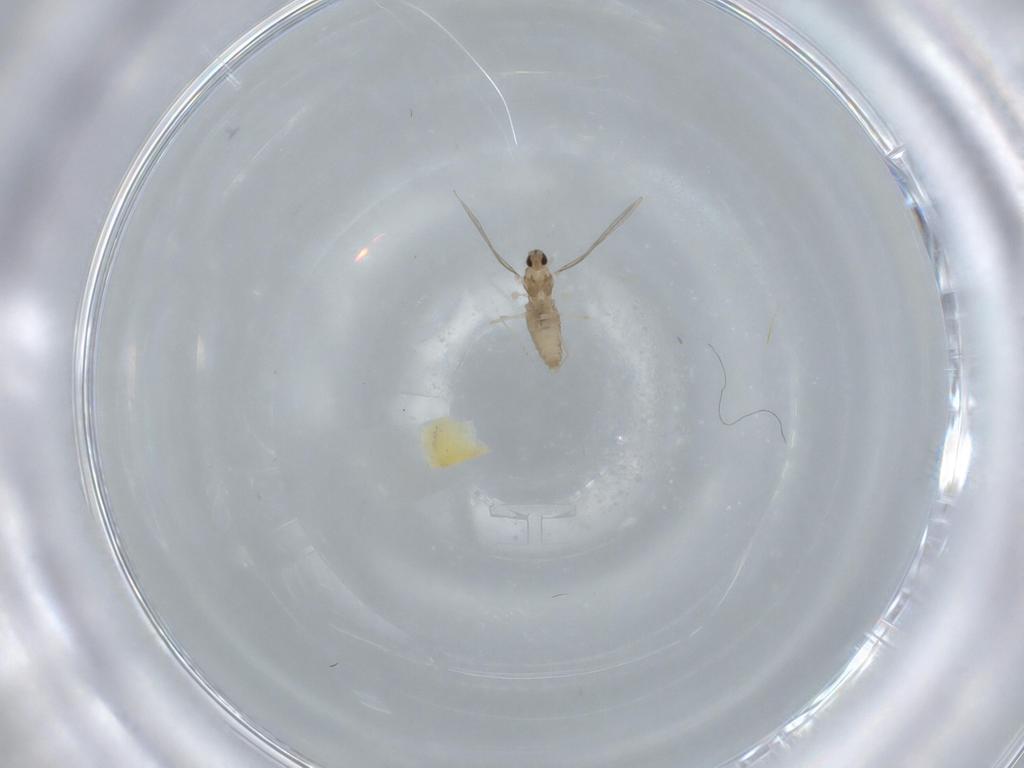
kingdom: Animalia
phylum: Arthropoda
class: Insecta
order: Diptera
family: Cecidomyiidae
